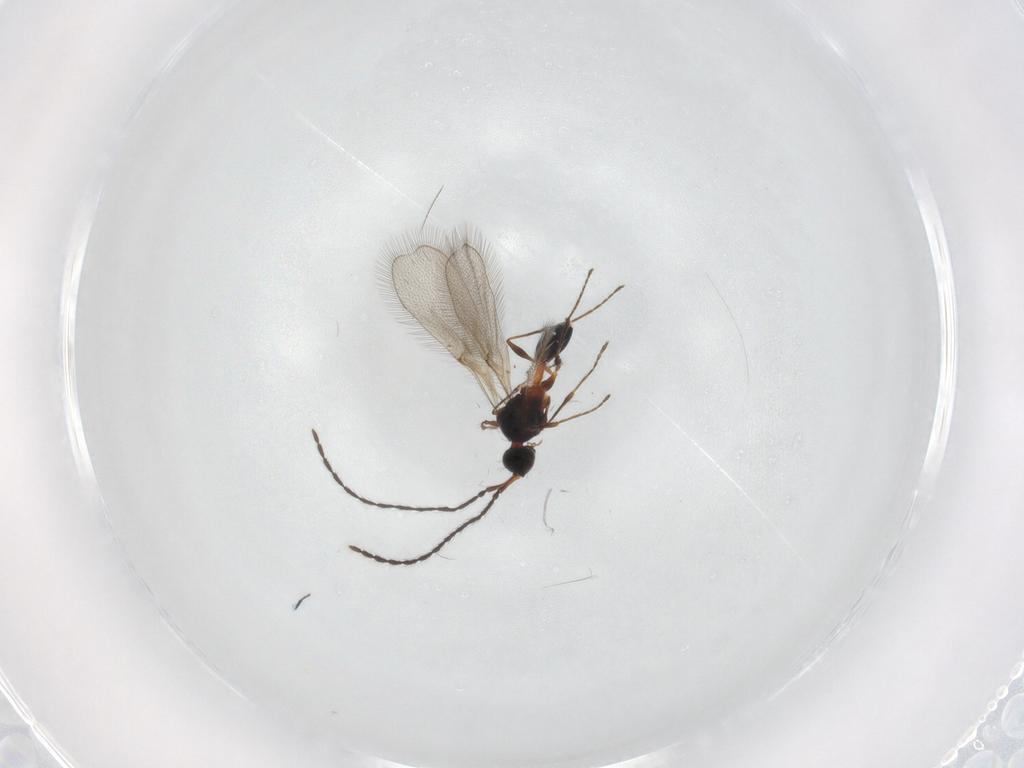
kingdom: Animalia
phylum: Arthropoda
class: Insecta
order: Hymenoptera
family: Diapriidae
